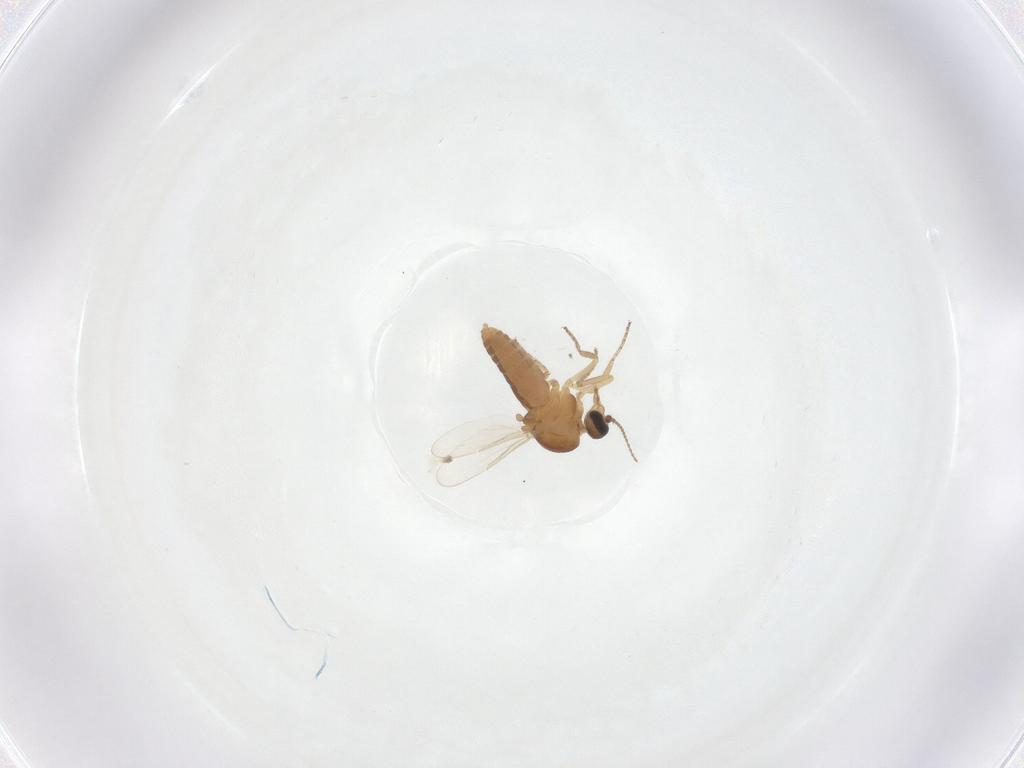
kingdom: Animalia
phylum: Arthropoda
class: Insecta
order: Diptera
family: Ceratopogonidae
